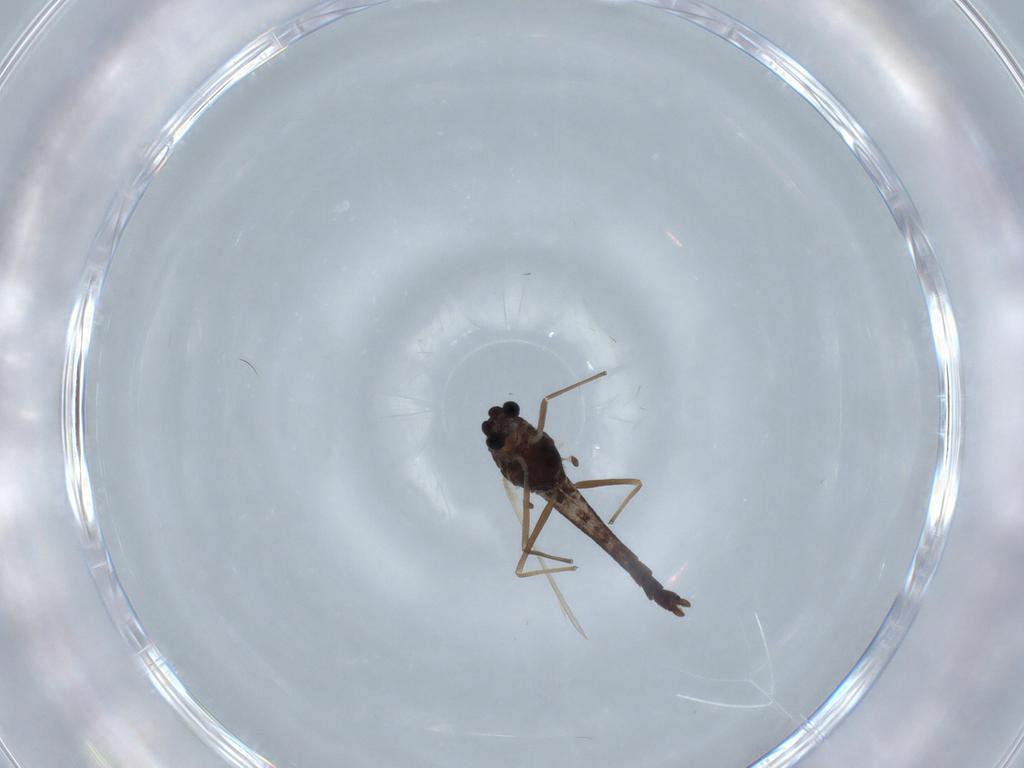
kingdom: Animalia
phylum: Arthropoda
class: Insecta
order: Diptera
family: Chironomidae
